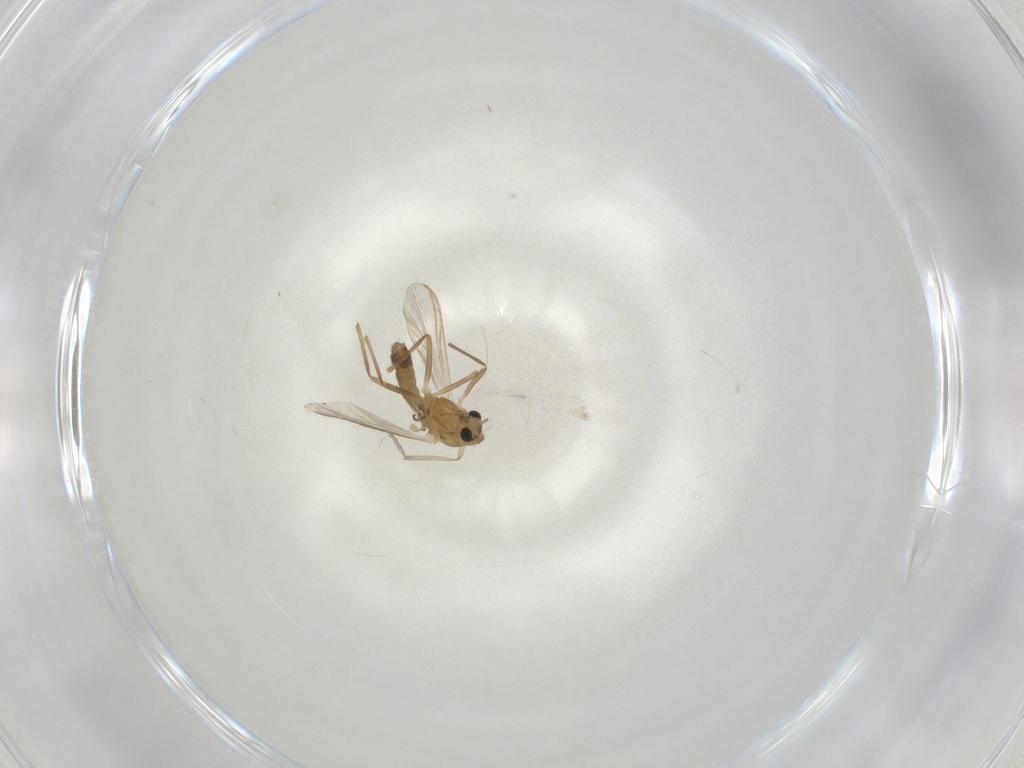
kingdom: Animalia
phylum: Arthropoda
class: Insecta
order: Diptera
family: Chironomidae
